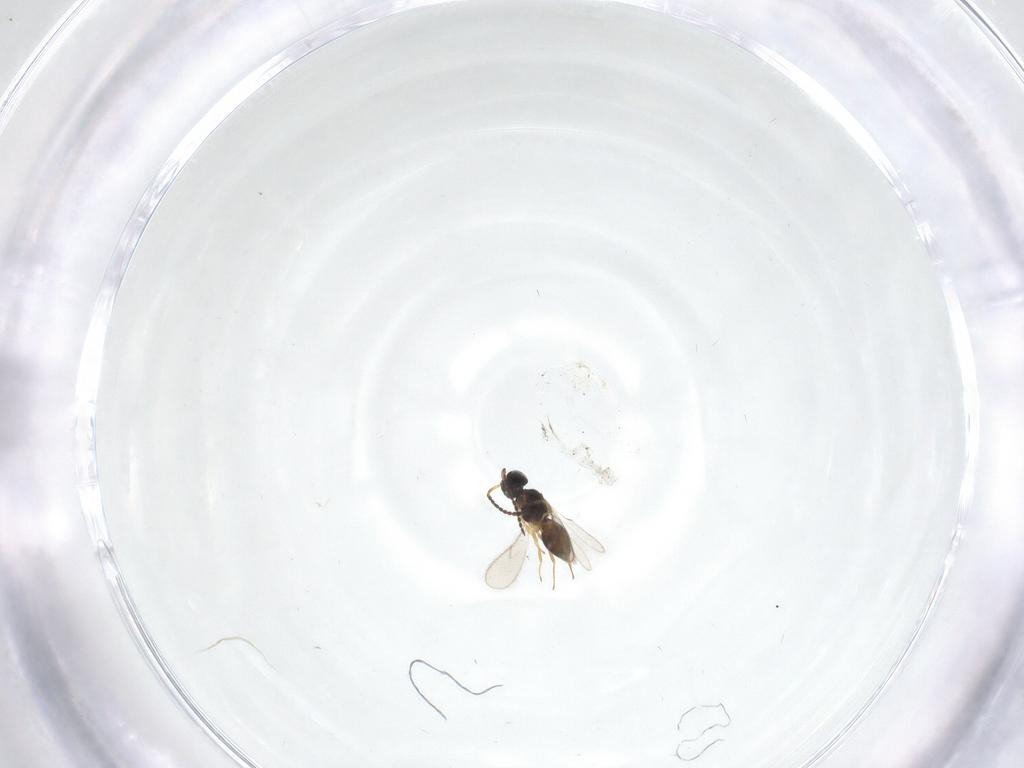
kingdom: Animalia
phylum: Arthropoda
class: Insecta
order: Hymenoptera
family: Scelionidae
